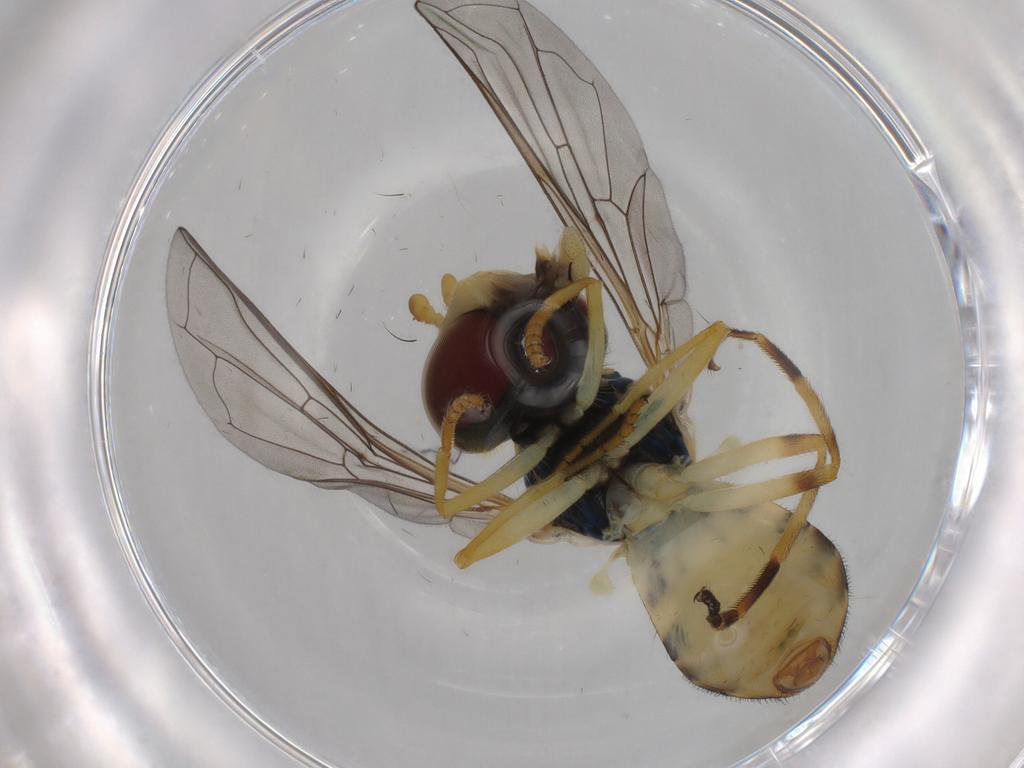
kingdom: Animalia
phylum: Arthropoda
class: Insecta
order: Diptera
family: Syrphidae
